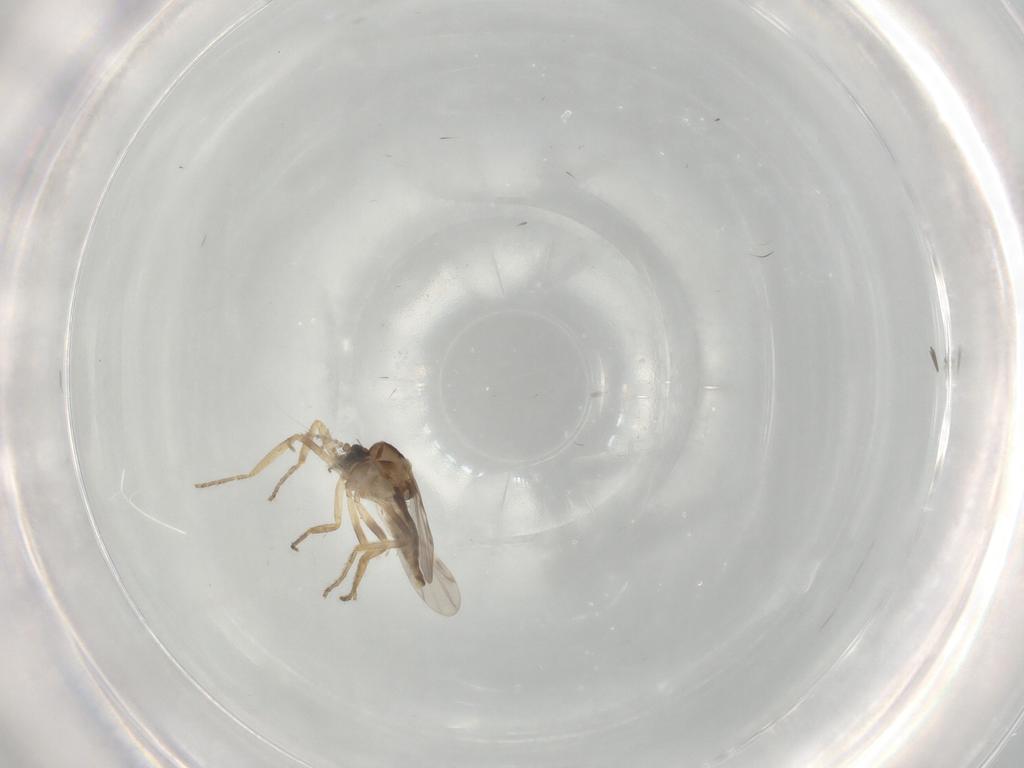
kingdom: Animalia
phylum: Arthropoda
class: Insecta
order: Diptera
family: Ceratopogonidae
